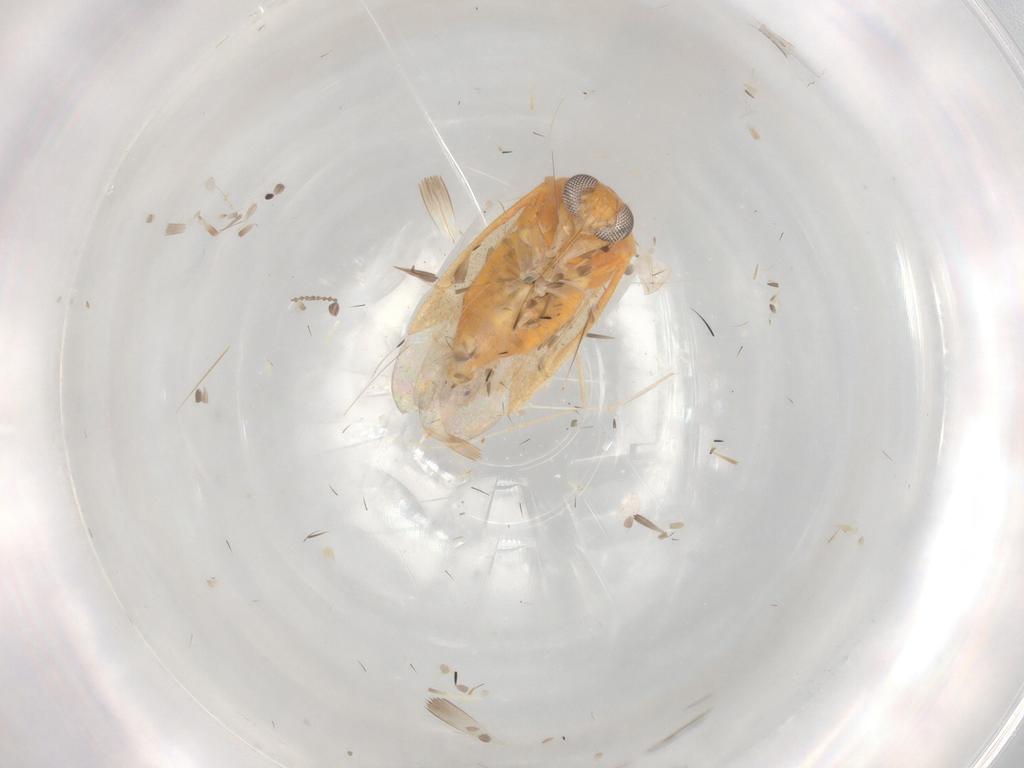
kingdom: Animalia
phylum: Arthropoda
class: Insecta
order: Hemiptera
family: Miridae
